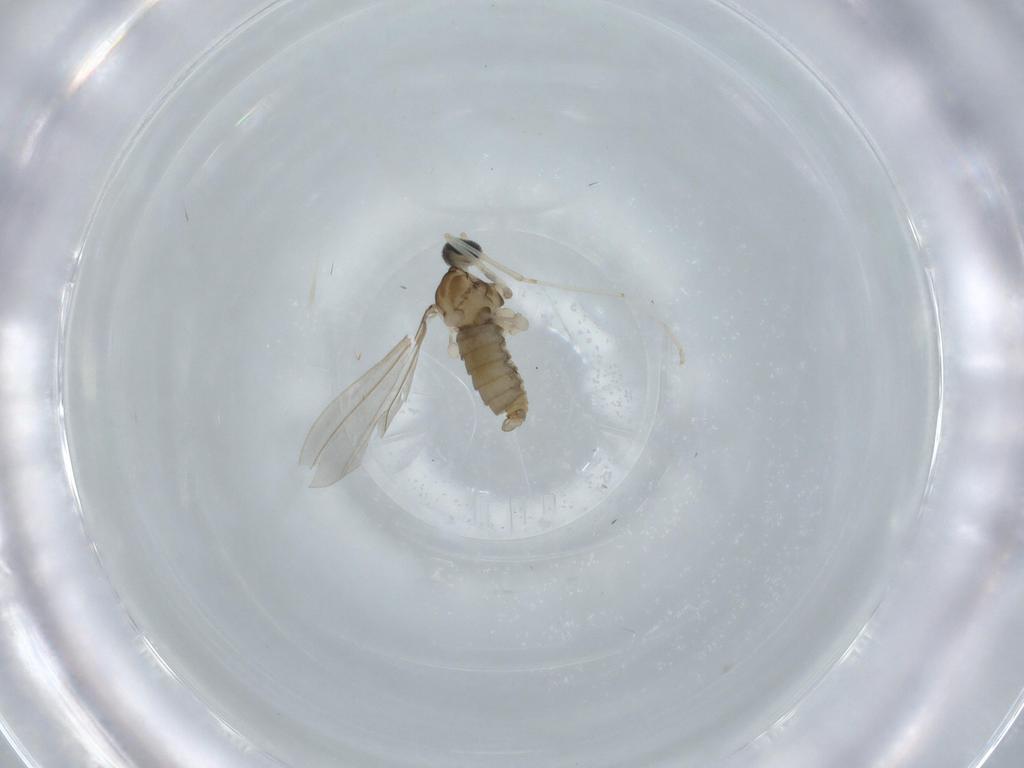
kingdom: Animalia
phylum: Arthropoda
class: Insecta
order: Diptera
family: Cecidomyiidae
